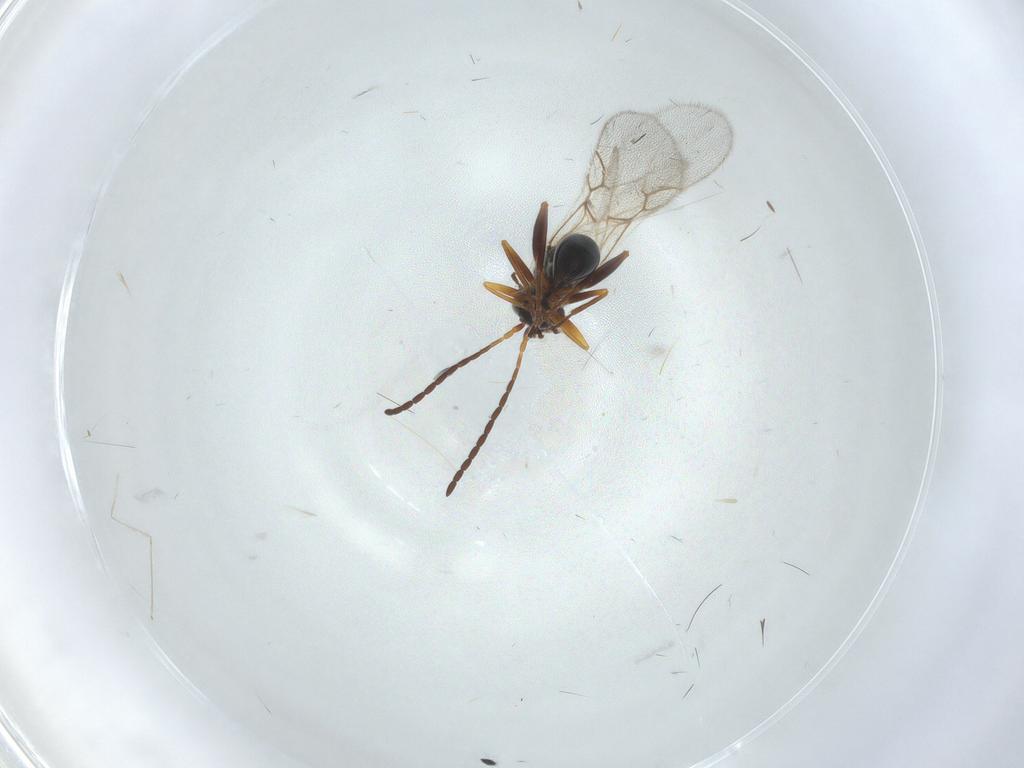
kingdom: Animalia
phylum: Arthropoda
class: Insecta
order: Hymenoptera
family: Figitidae
